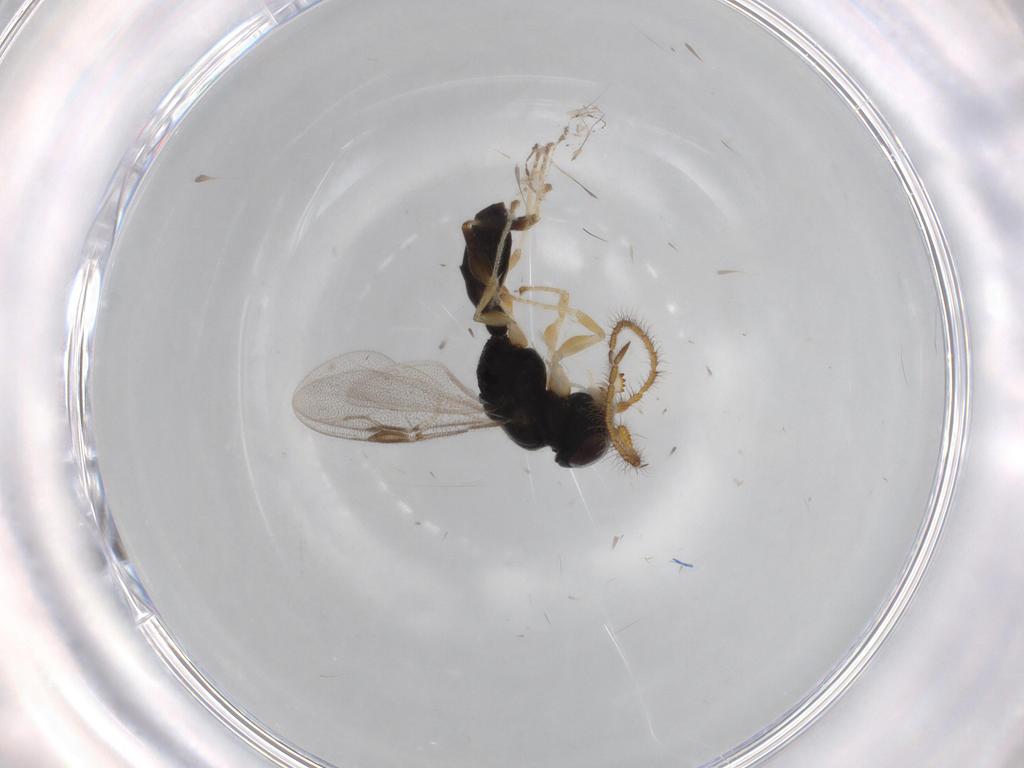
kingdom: Animalia
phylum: Arthropoda
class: Insecta
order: Hymenoptera
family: Dryinidae
